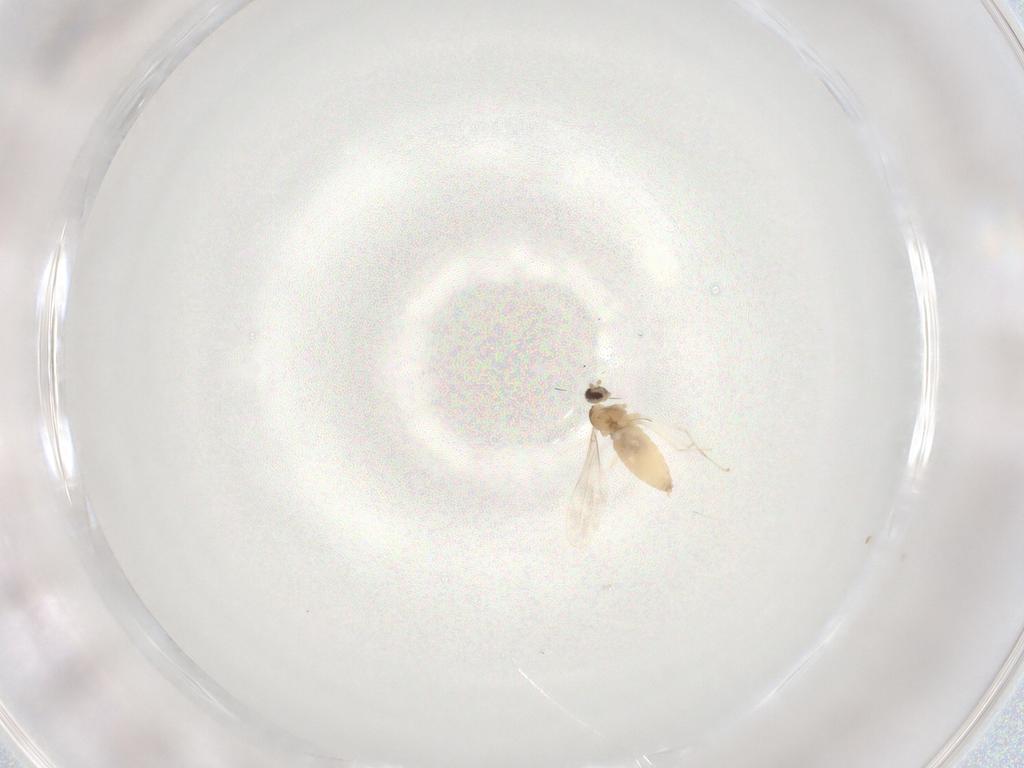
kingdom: Animalia
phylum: Arthropoda
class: Insecta
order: Diptera
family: Cecidomyiidae
